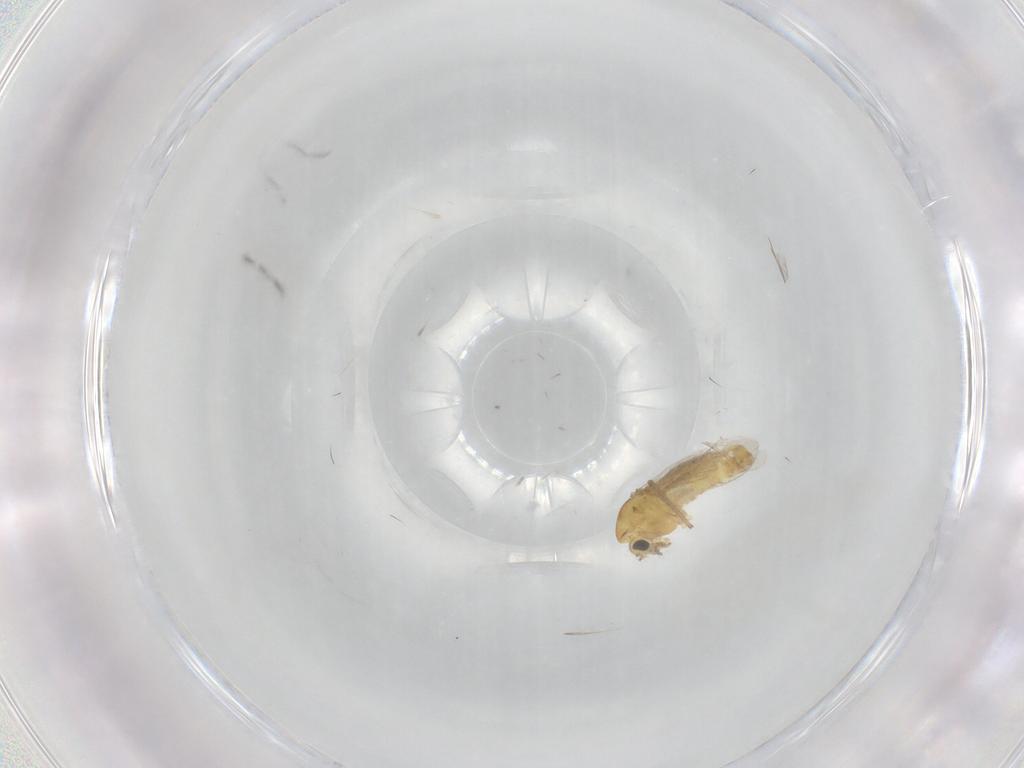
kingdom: Animalia
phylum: Arthropoda
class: Insecta
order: Diptera
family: Chironomidae
